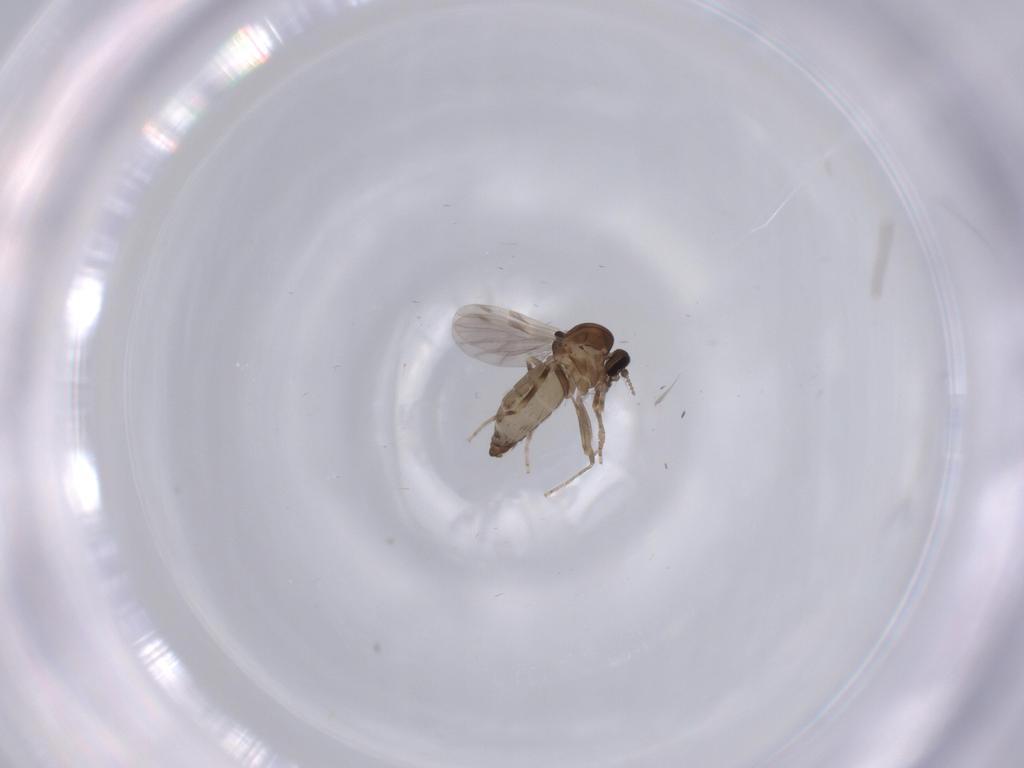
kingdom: Animalia
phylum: Arthropoda
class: Insecta
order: Diptera
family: Ceratopogonidae
